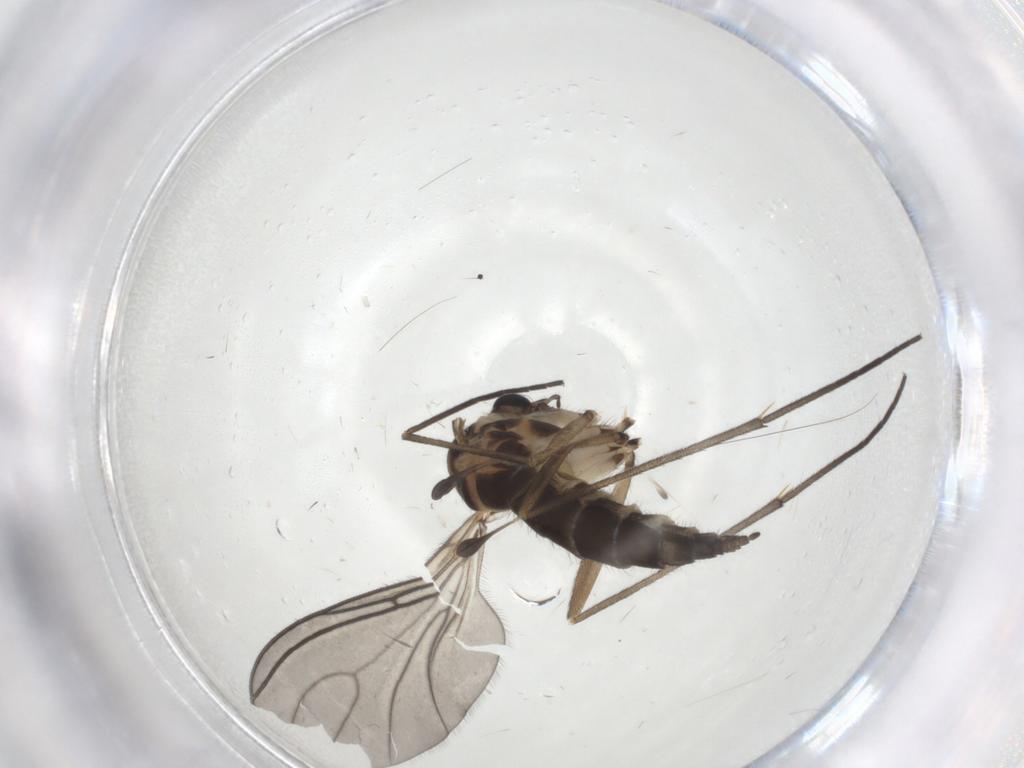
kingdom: Animalia
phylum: Arthropoda
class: Insecta
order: Diptera
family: Sciaridae
